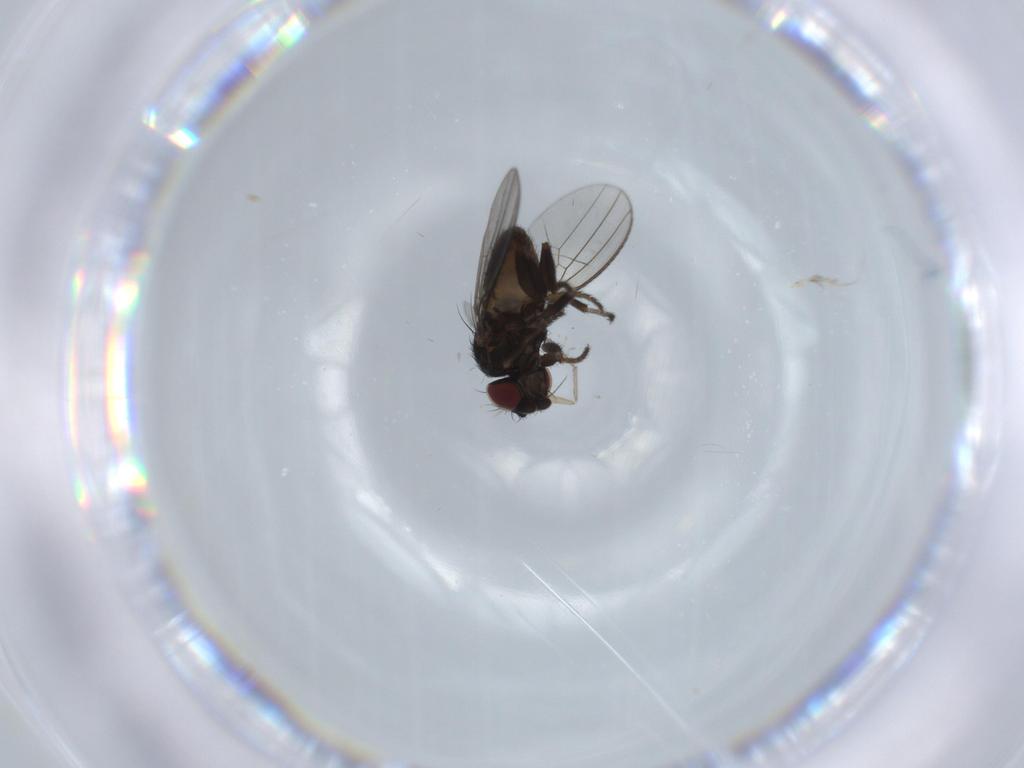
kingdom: Animalia
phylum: Arthropoda
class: Insecta
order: Diptera
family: Milichiidae
